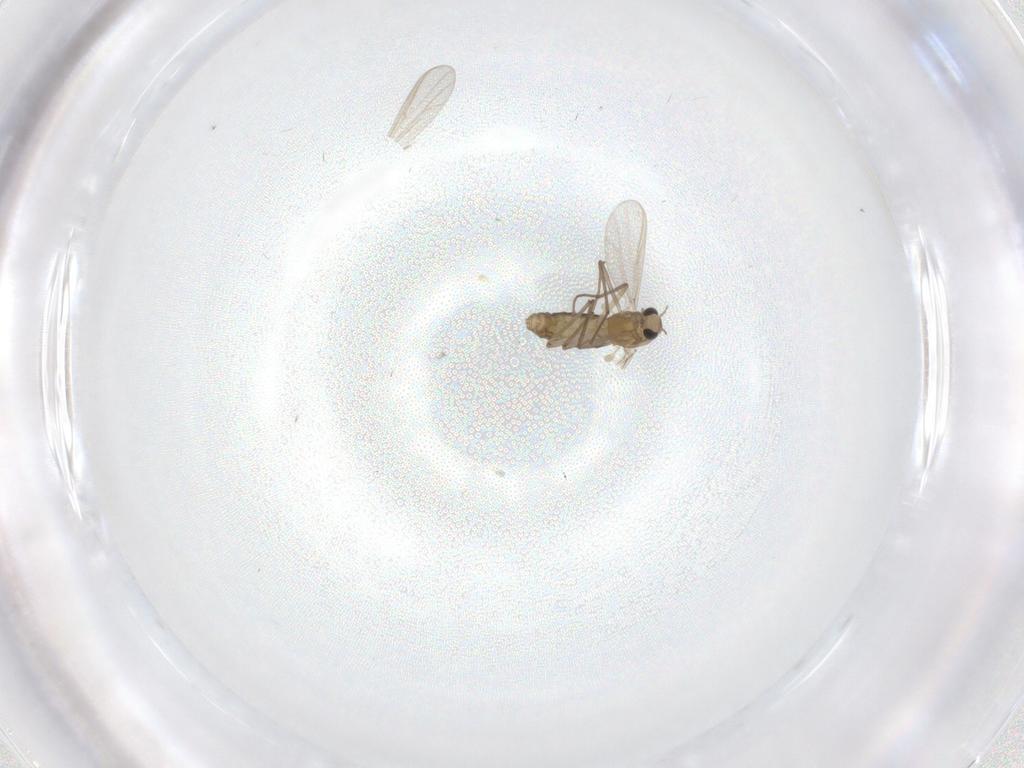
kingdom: Animalia
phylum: Arthropoda
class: Insecta
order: Diptera
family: Chironomidae
